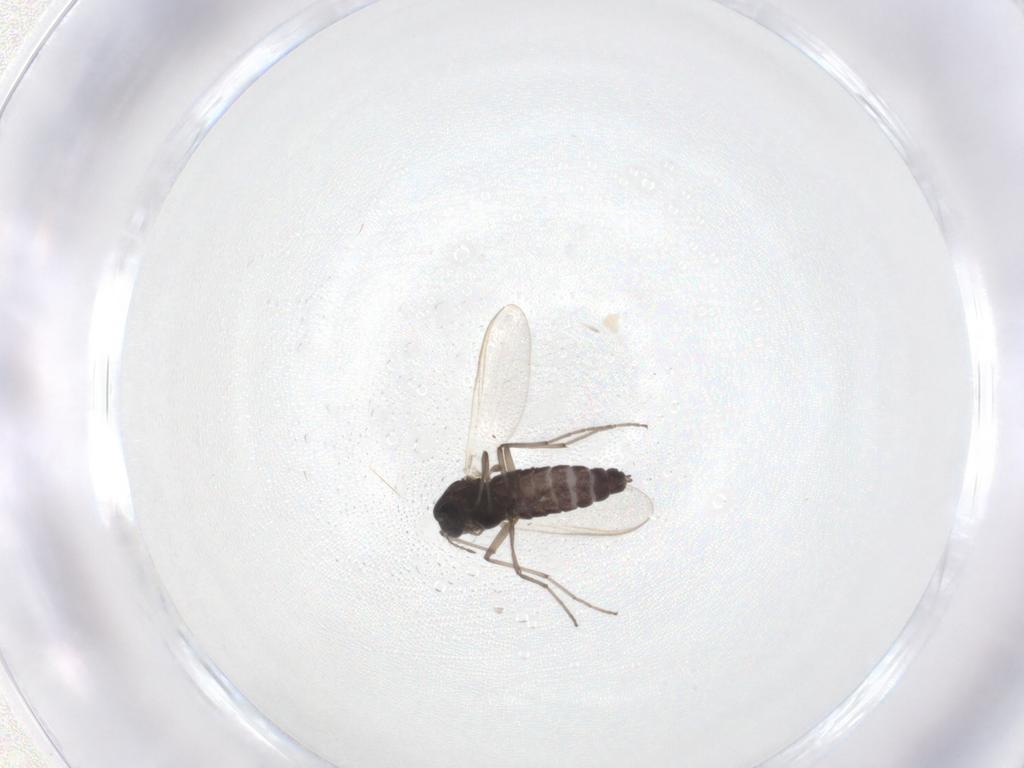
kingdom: Animalia
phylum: Arthropoda
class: Insecta
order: Diptera
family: Chironomidae
